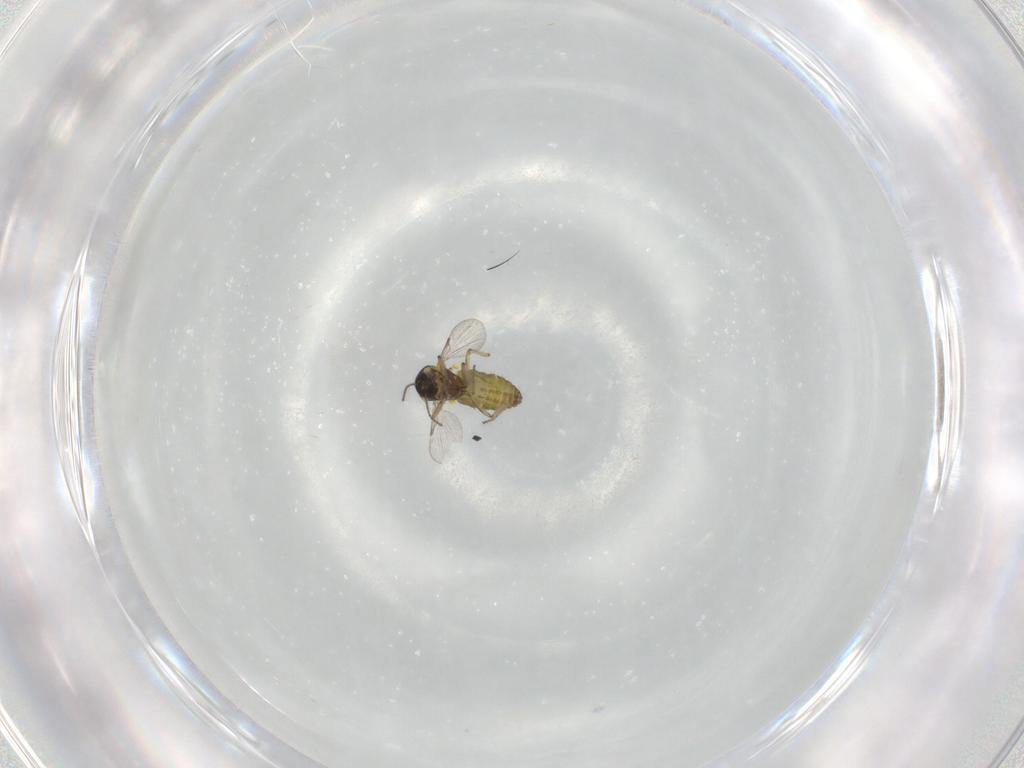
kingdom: Animalia
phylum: Arthropoda
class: Insecta
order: Diptera
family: Ceratopogonidae
